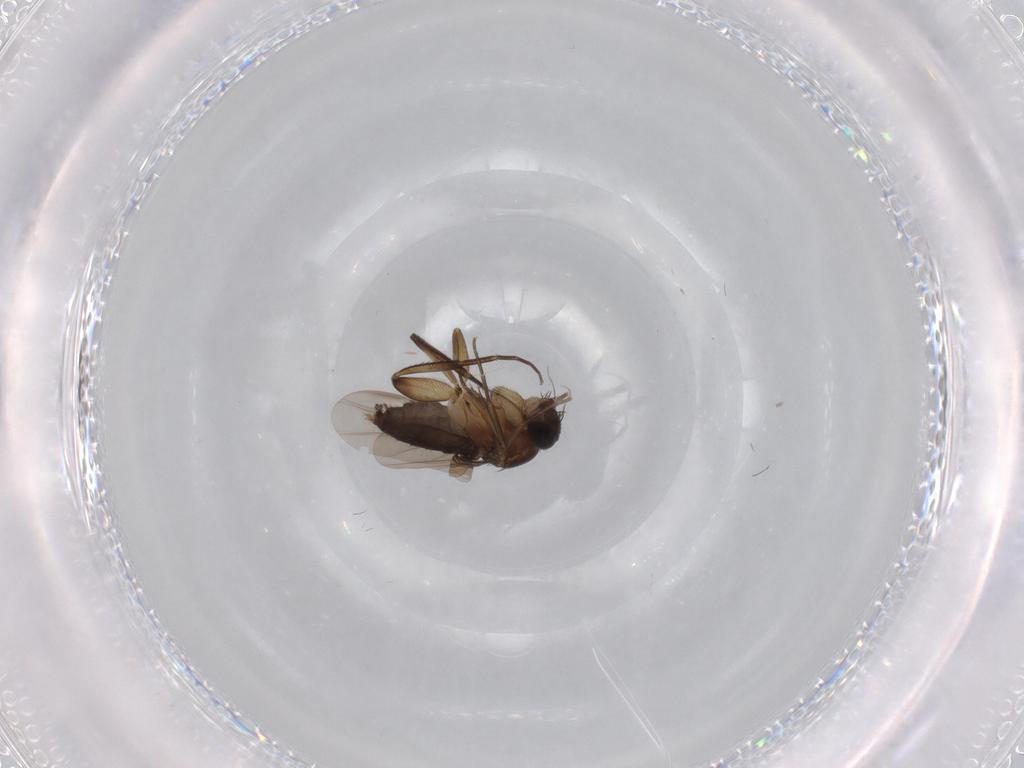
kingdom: Animalia
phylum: Arthropoda
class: Insecta
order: Diptera
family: Phoridae
